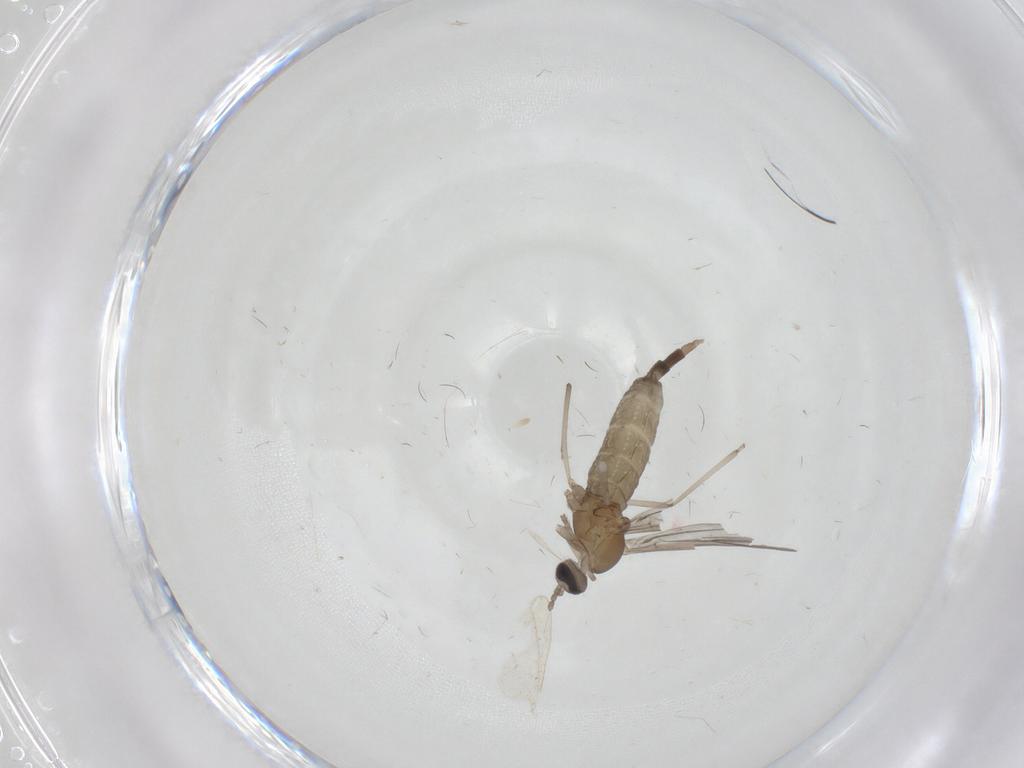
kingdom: Animalia
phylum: Arthropoda
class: Insecta
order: Diptera
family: Cecidomyiidae
